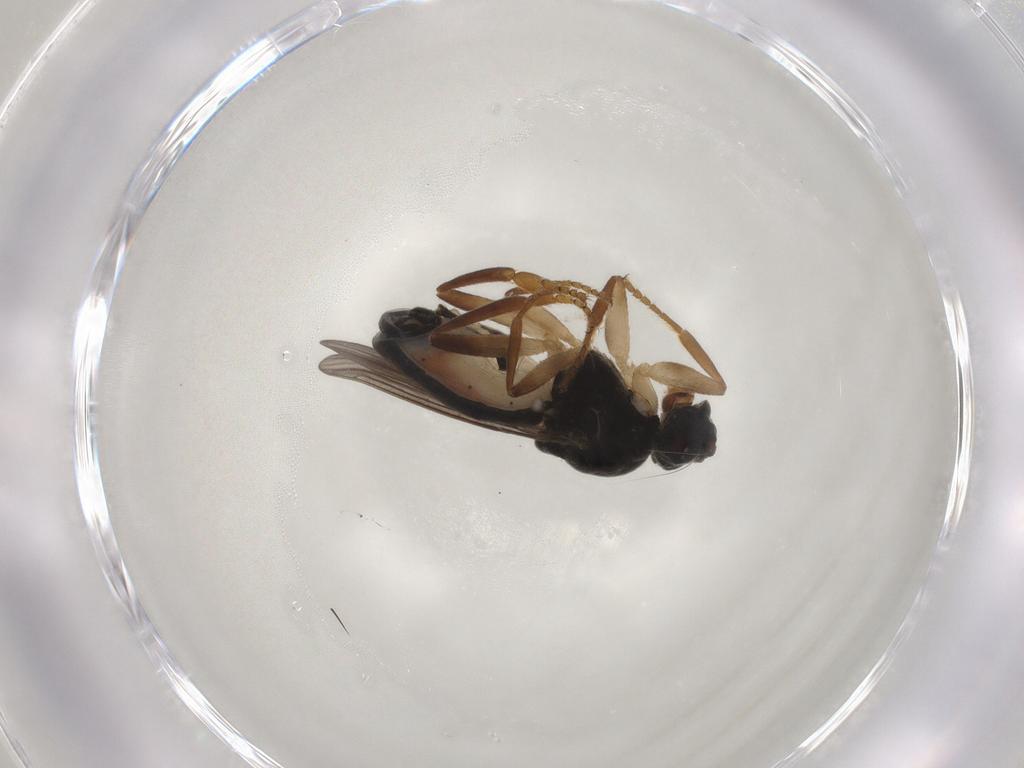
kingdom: Animalia
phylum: Arthropoda
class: Insecta
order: Diptera
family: Sphaeroceridae
